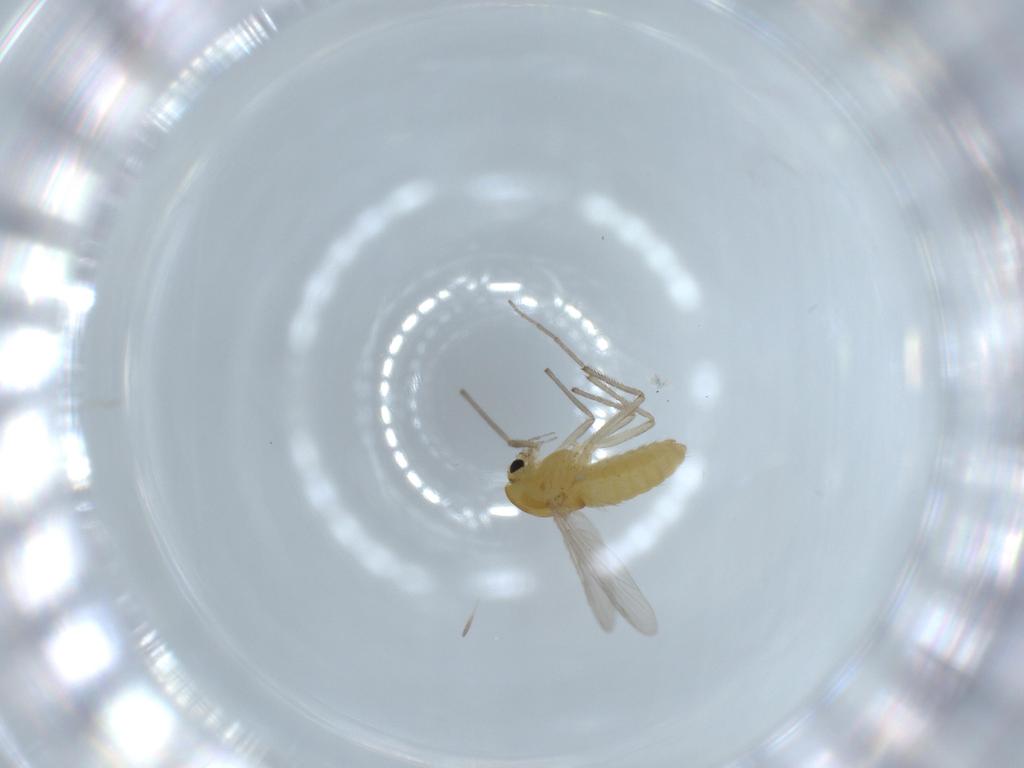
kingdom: Animalia
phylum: Arthropoda
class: Insecta
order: Diptera
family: Chironomidae
